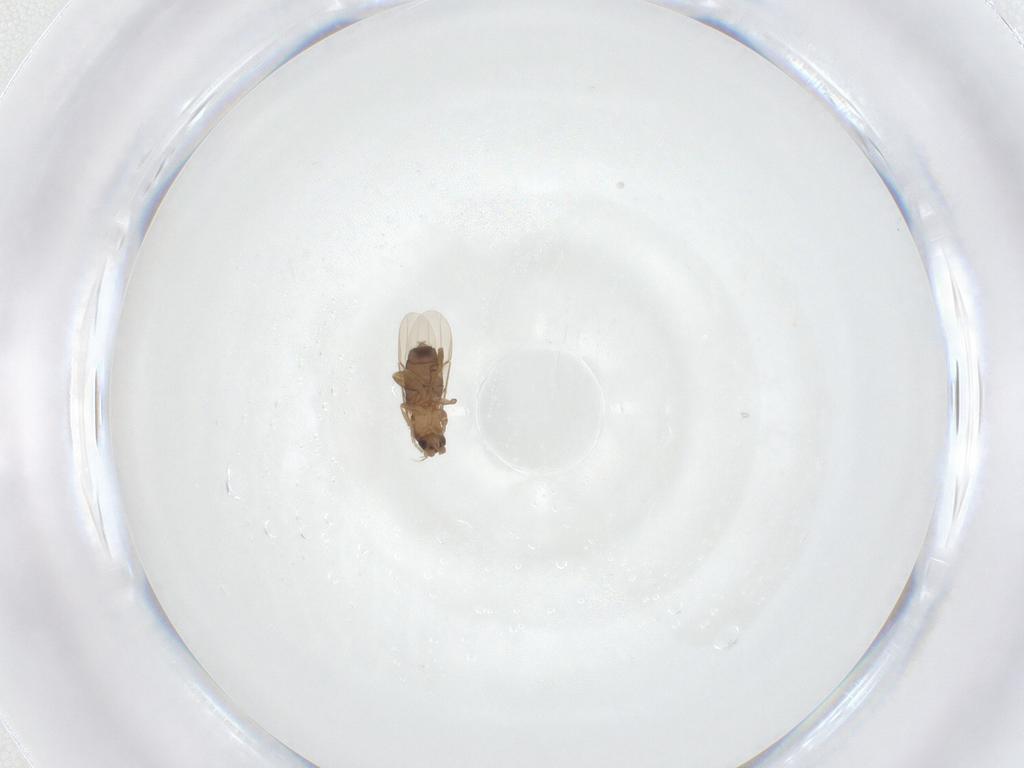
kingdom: Animalia
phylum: Arthropoda
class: Insecta
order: Diptera
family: Phoridae
